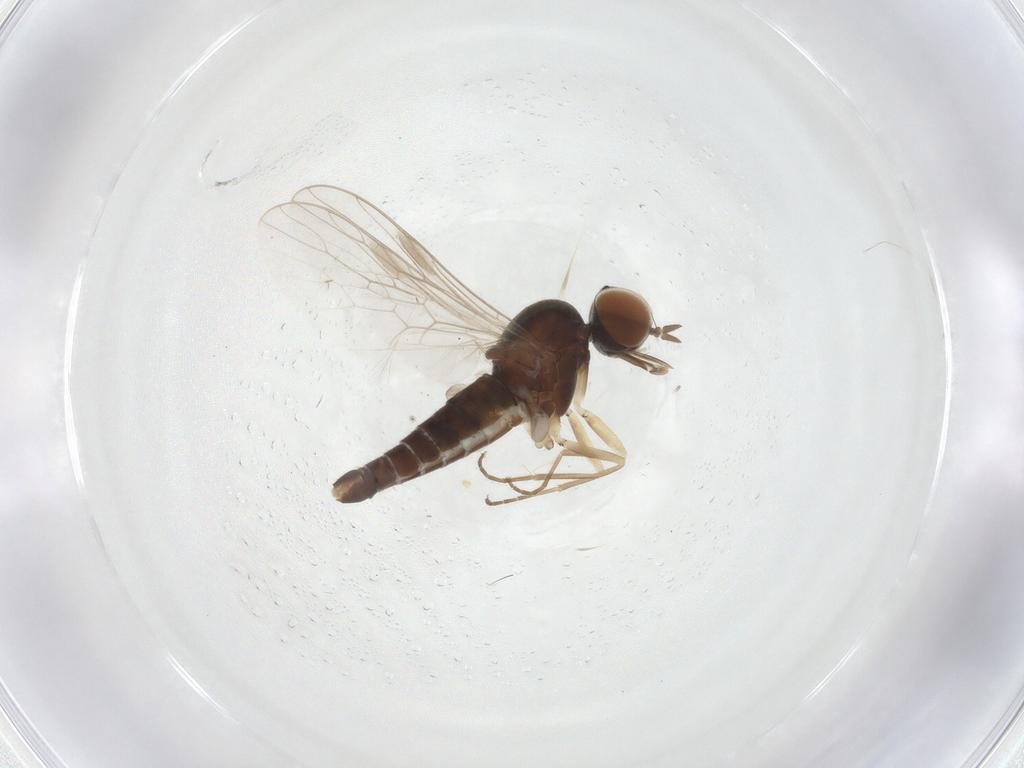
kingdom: Animalia
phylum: Arthropoda
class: Insecta
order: Diptera
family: Scenopinidae
